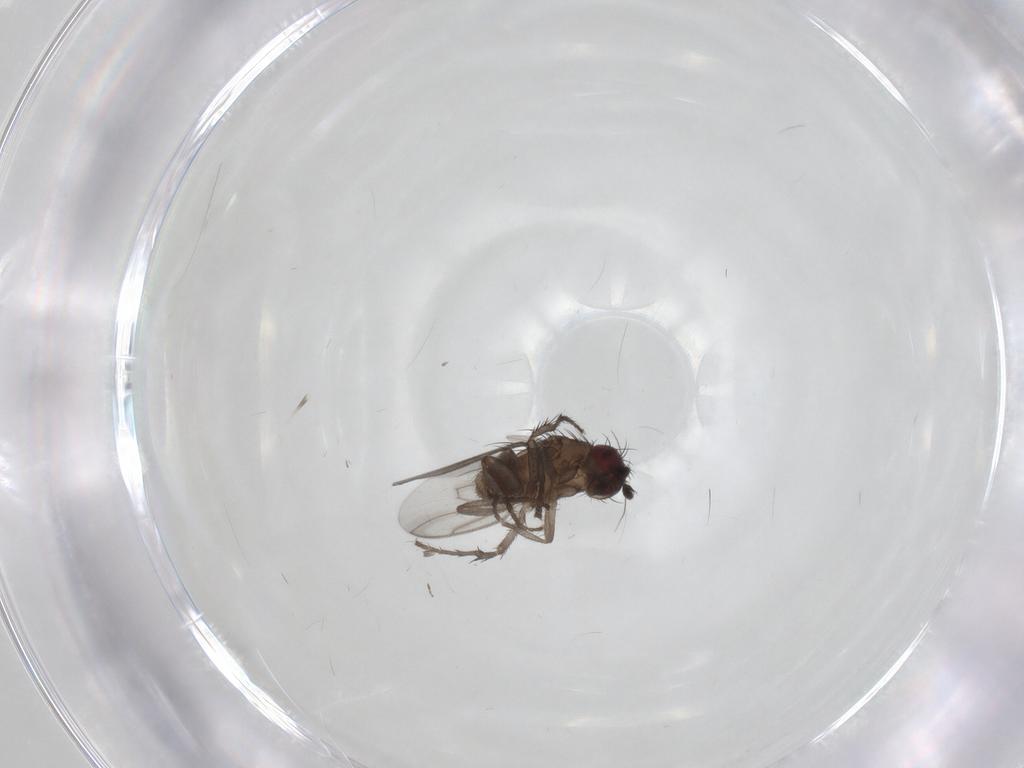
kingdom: Animalia
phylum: Arthropoda
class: Insecta
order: Diptera
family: Sphaeroceridae
